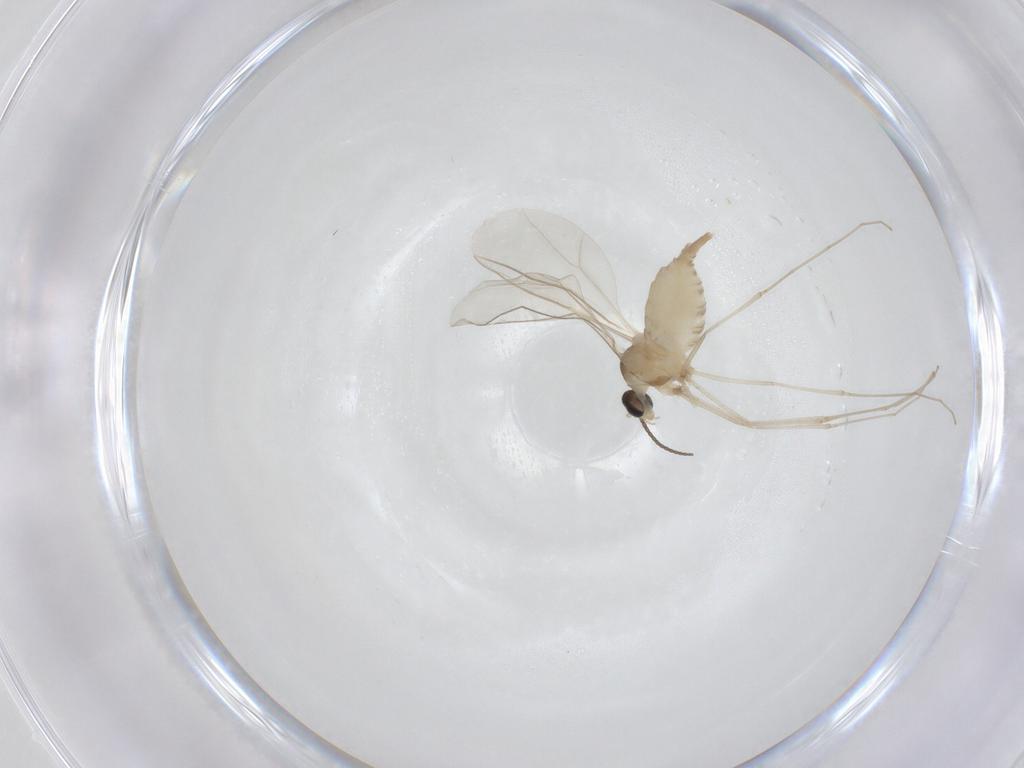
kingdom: Animalia
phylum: Arthropoda
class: Insecta
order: Diptera
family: Cecidomyiidae
